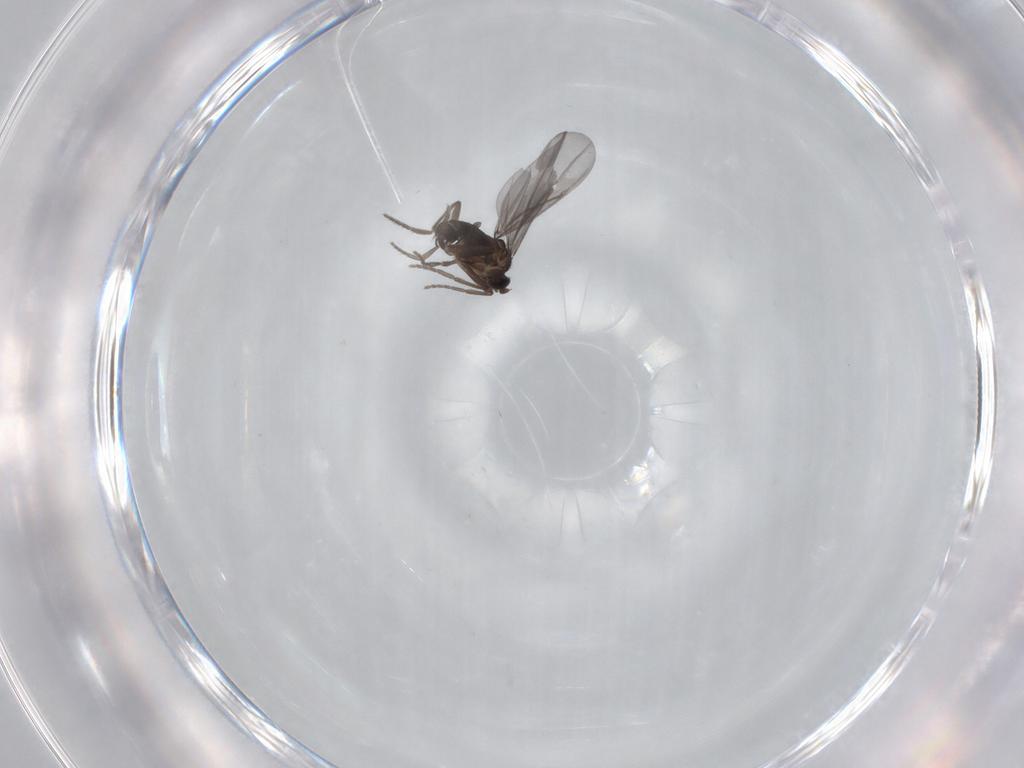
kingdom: Animalia
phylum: Arthropoda
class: Insecta
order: Diptera
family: Phoridae
